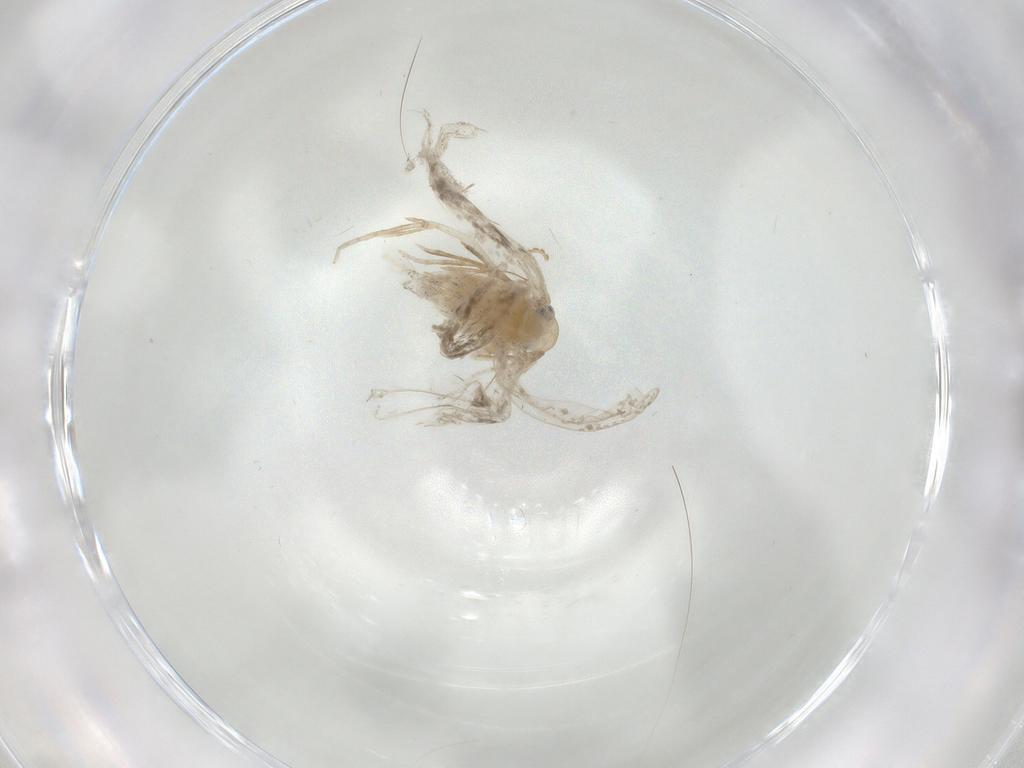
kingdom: Animalia
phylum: Arthropoda
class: Insecta
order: Lepidoptera
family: Psychidae
